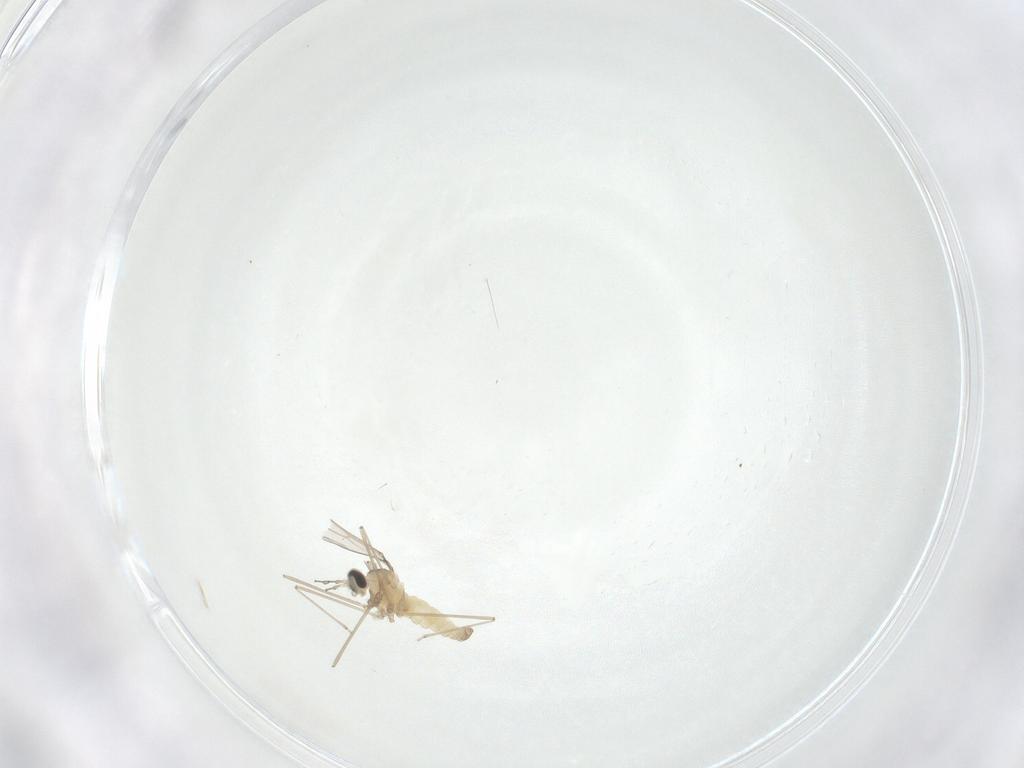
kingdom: Animalia
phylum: Arthropoda
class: Insecta
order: Diptera
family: Cecidomyiidae
